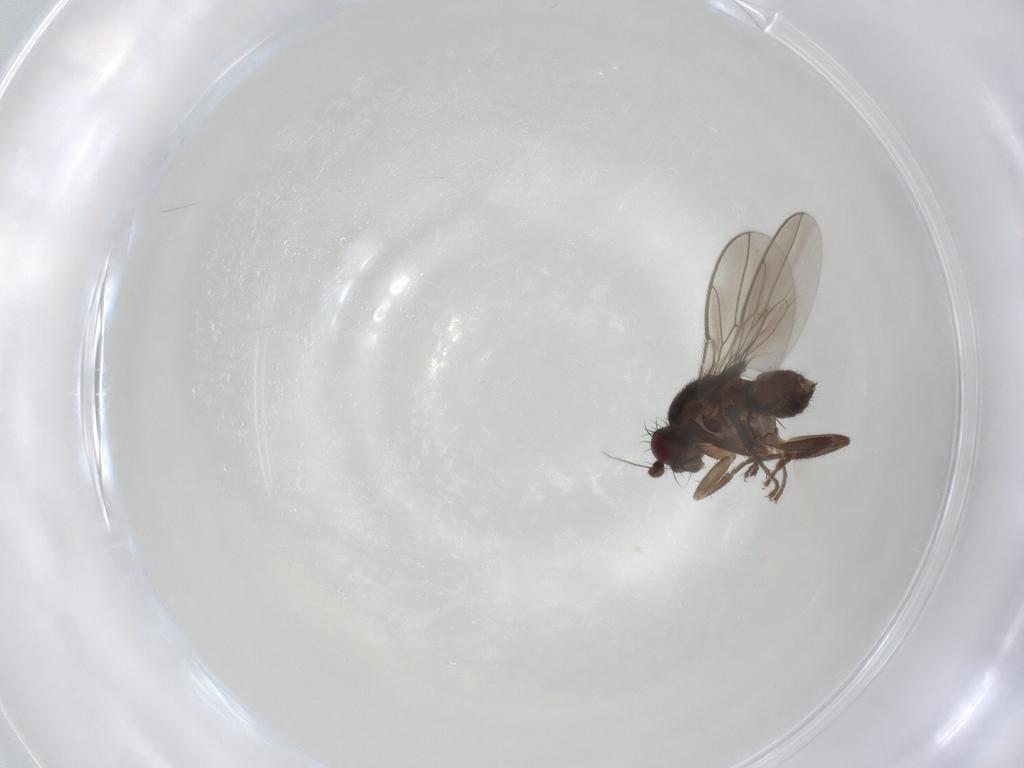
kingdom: Animalia
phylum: Arthropoda
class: Insecta
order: Diptera
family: Sphaeroceridae
